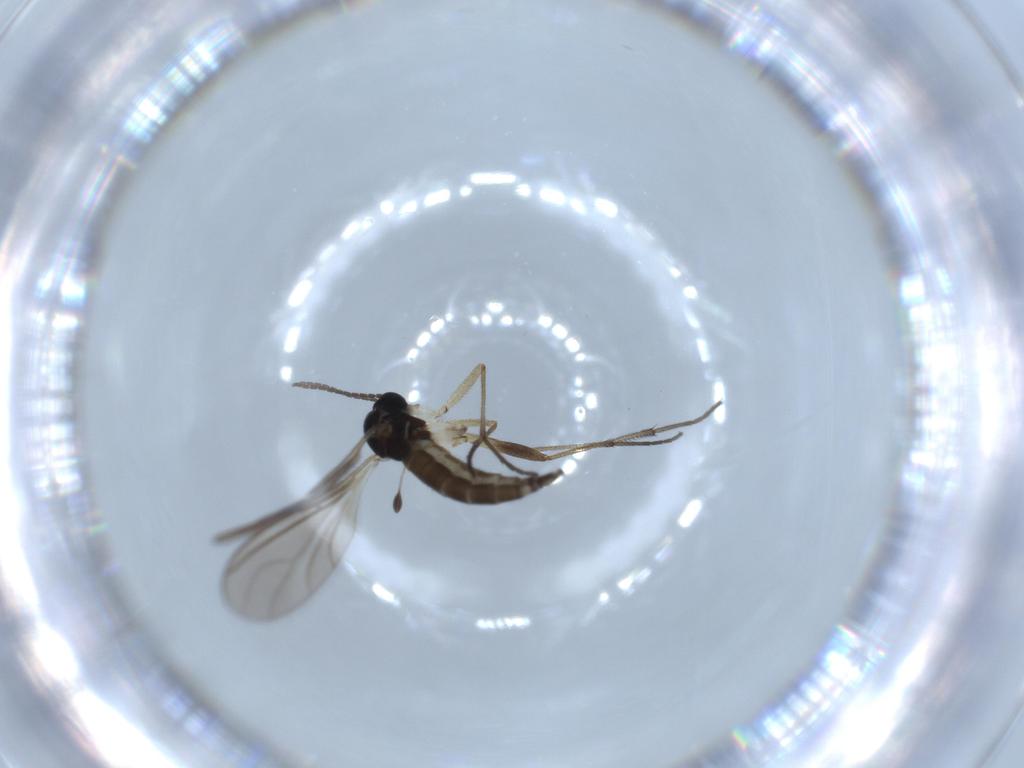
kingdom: Animalia
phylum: Arthropoda
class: Insecta
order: Diptera
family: Sciaridae
